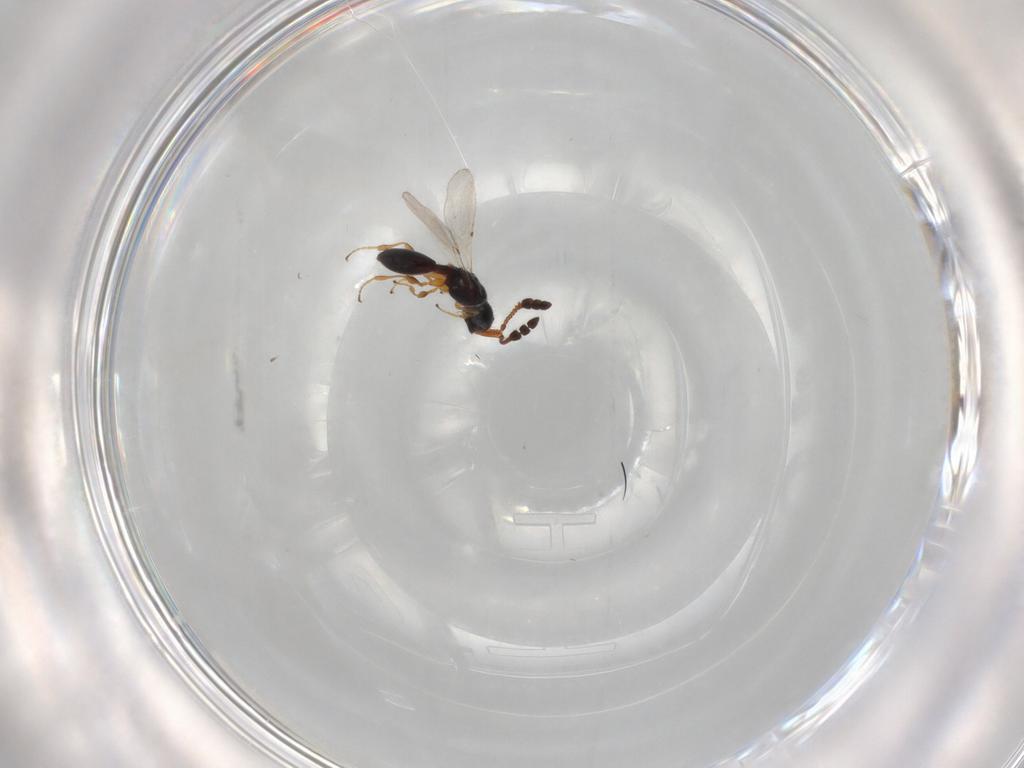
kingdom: Animalia
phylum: Arthropoda
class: Insecta
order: Hymenoptera
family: Diapriidae
